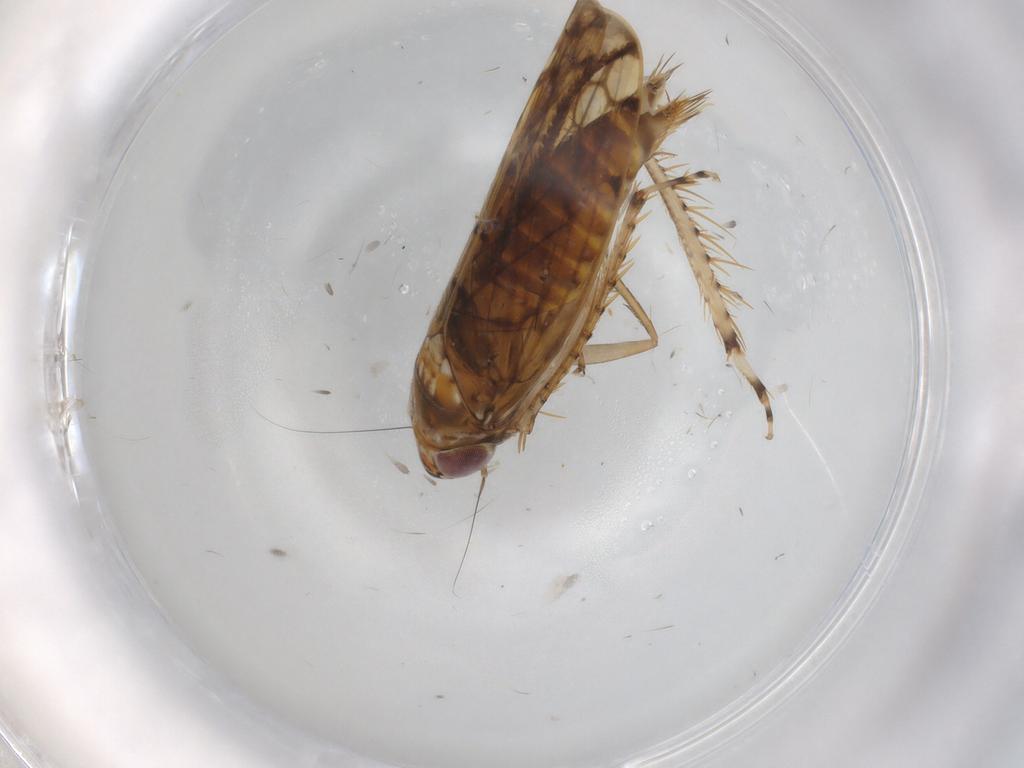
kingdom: Animalia
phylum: Arthropoda
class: Insecta
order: Hemiptera
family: Cicadellidae
